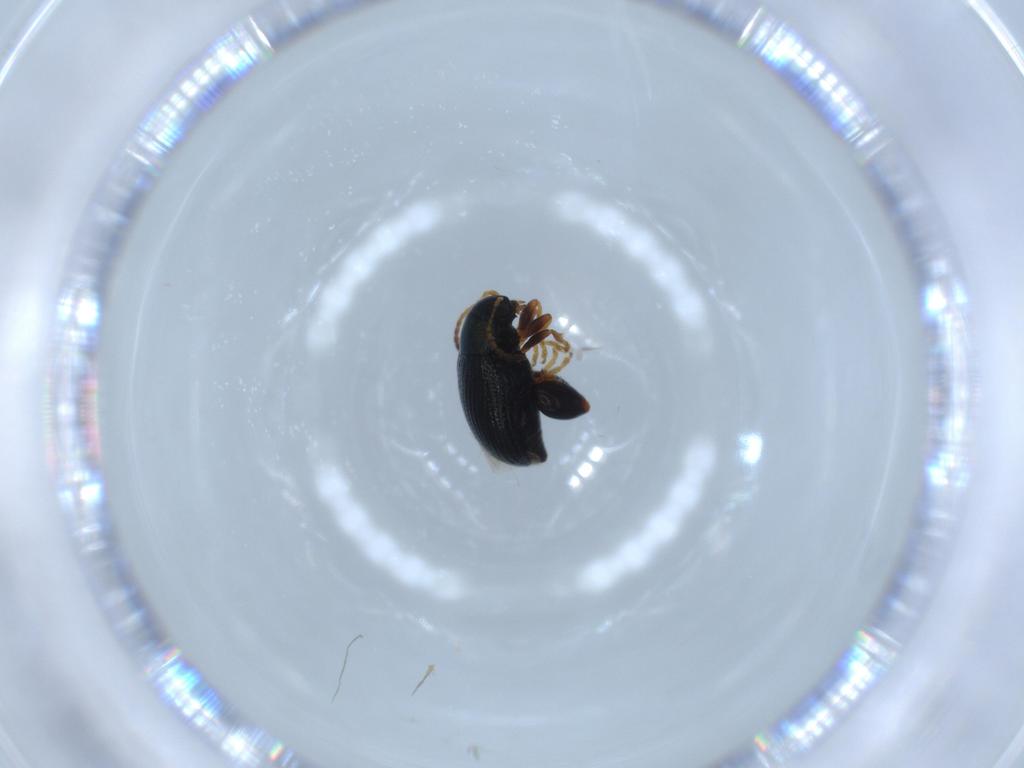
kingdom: Animalia
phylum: Arthropoda
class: Insecta
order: Coleoptera
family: Chrysomelidae
